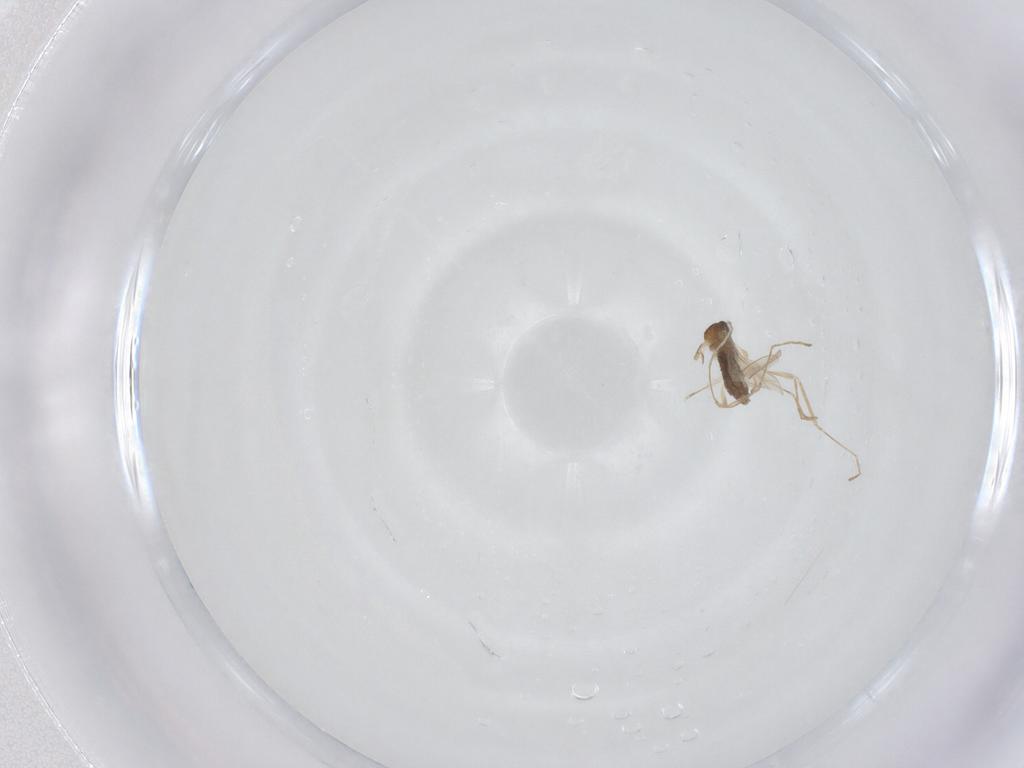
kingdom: Animalia
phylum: Arthropoda
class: Insecta
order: Diptera
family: Cecidomyiidae
